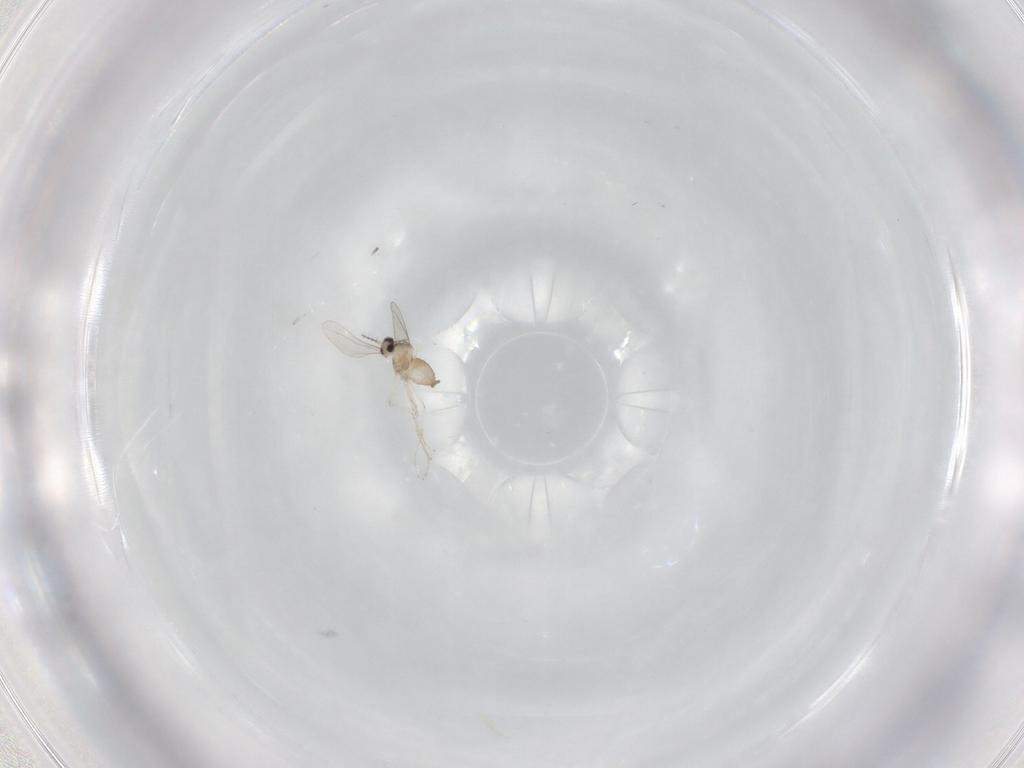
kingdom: Animalia
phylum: Arthropoda
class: Insecta
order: Diptera
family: Cecidomyiidae
